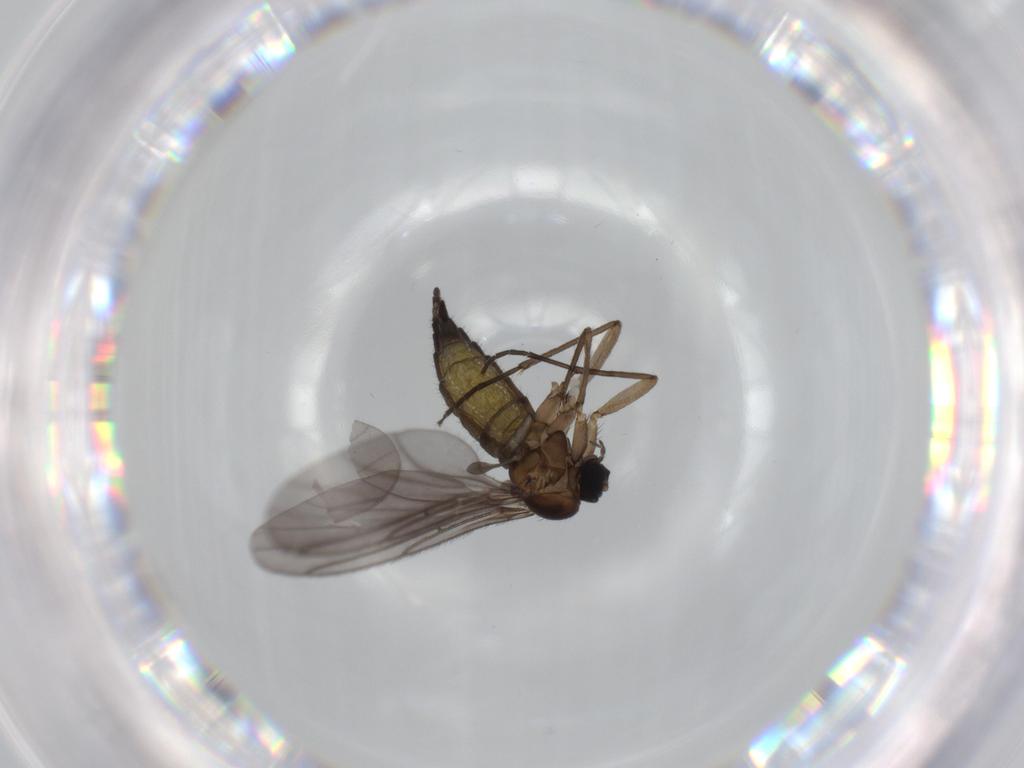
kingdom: Animalia
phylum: Arthropoda
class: Insecta
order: Diptera
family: Sciaridae
